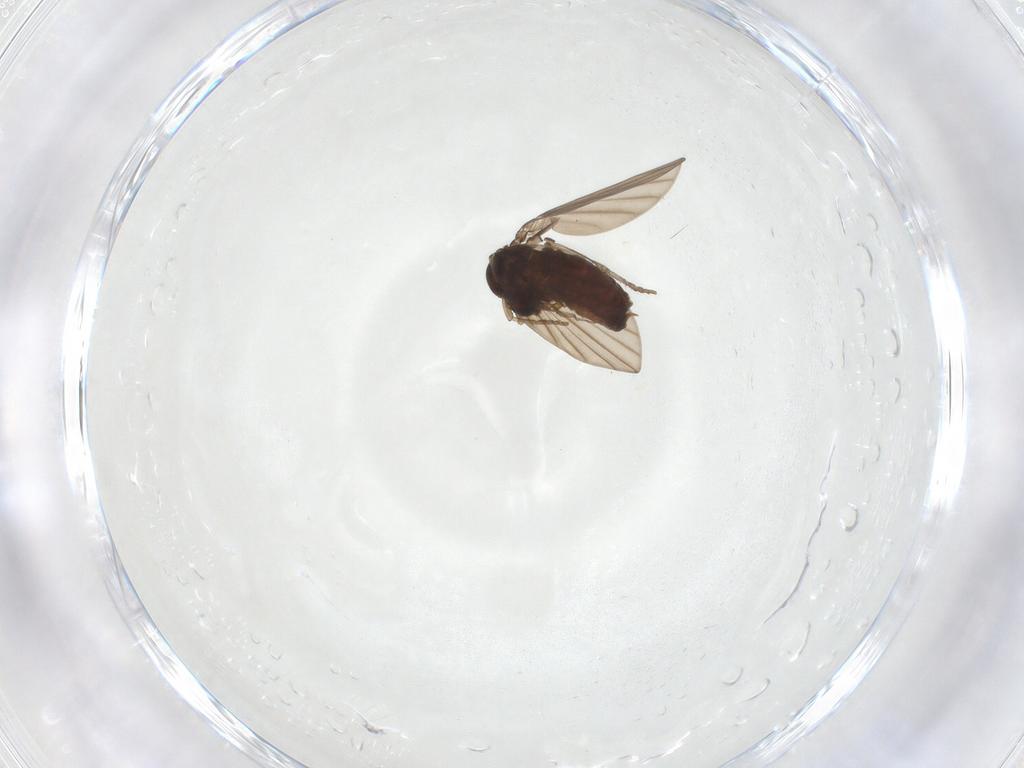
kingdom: Animalia
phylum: Arthropoda
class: Insecta
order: Diptera
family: Psychodidae
